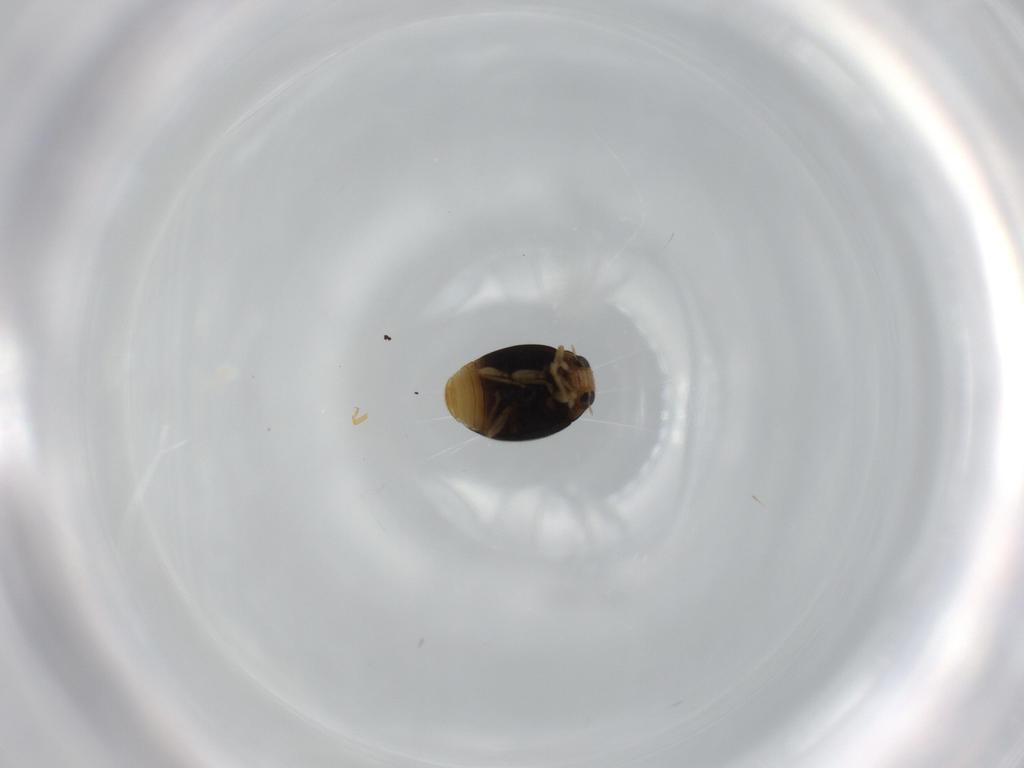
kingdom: Animalia
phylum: Arthropoda
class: Insecta
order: Coleoptera
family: Coccinellidae
